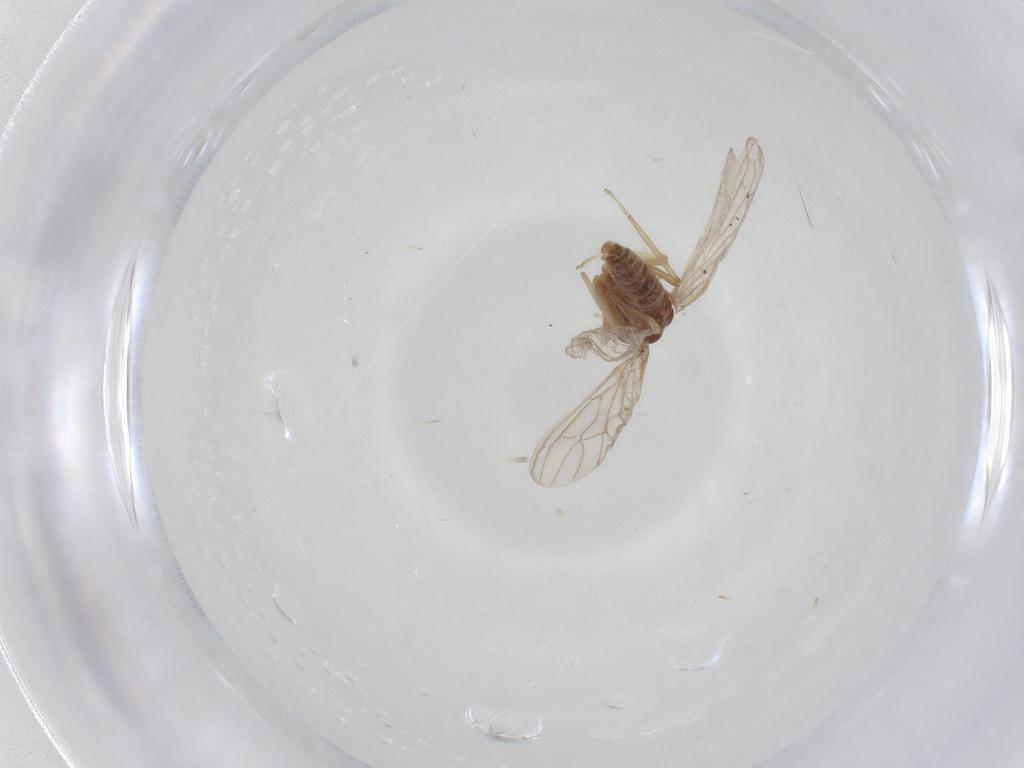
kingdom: Animalia
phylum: Arthropoda
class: Insecta
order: Neuroptera
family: Coniopterygidae
